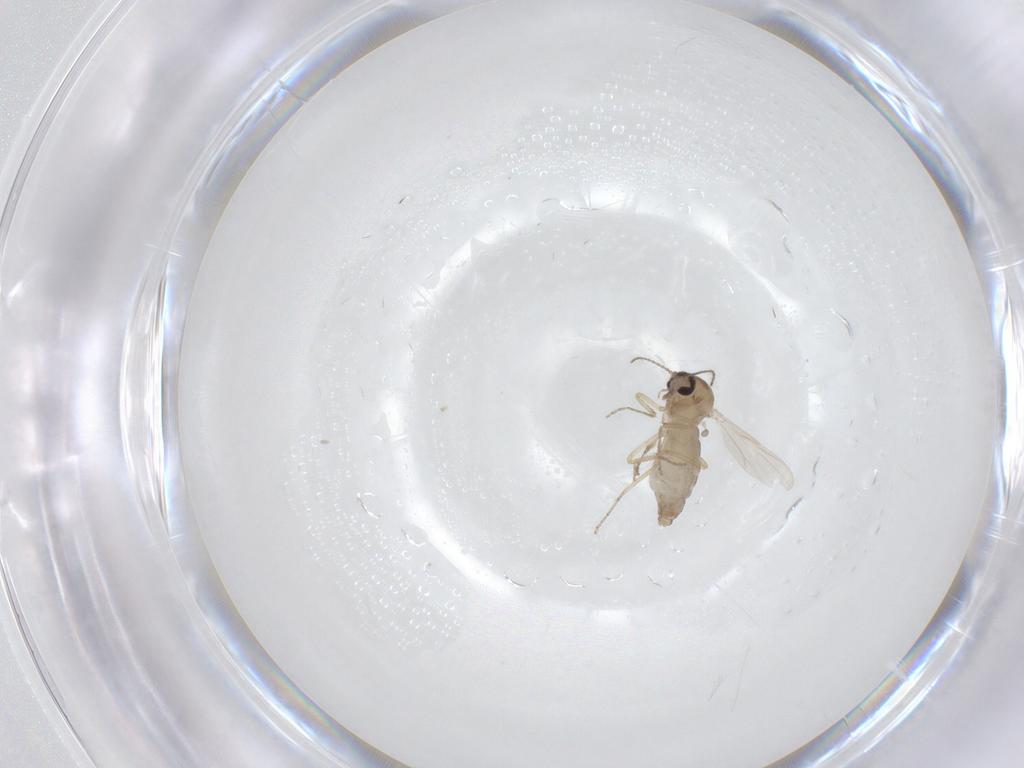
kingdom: Animalia
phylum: Arthropoda
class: Insecta
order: Diptera
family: Ceratopogonidae
